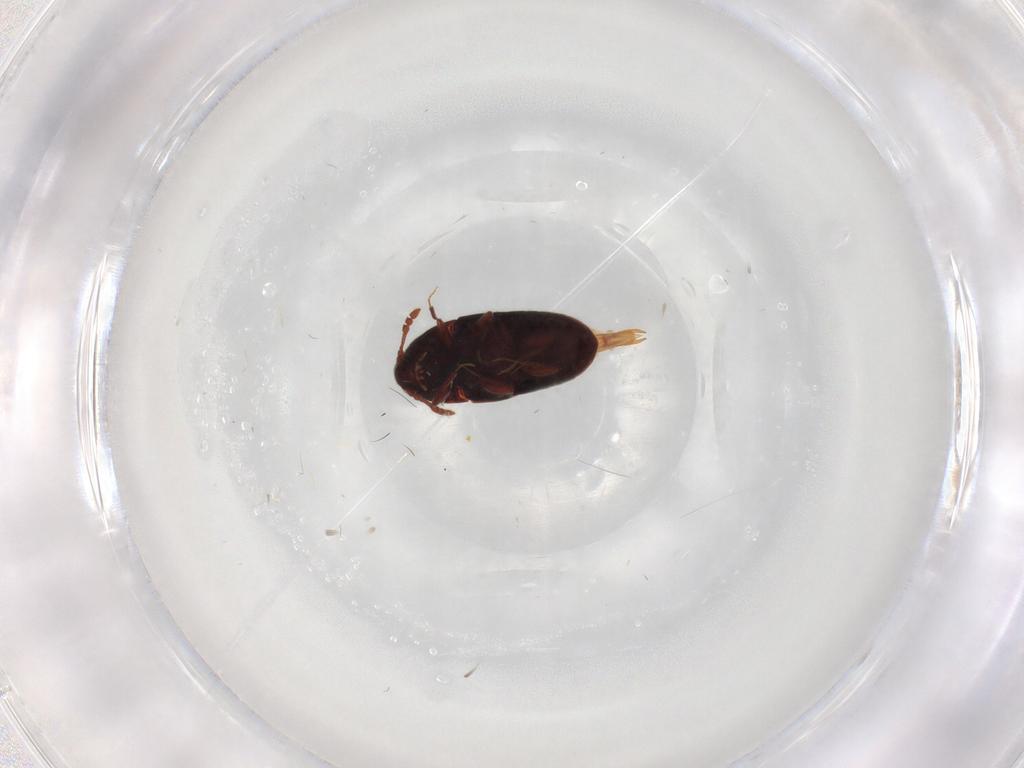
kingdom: Animalia
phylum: Arthropoda
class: Insecta
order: Coleoptera
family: Throscidae
